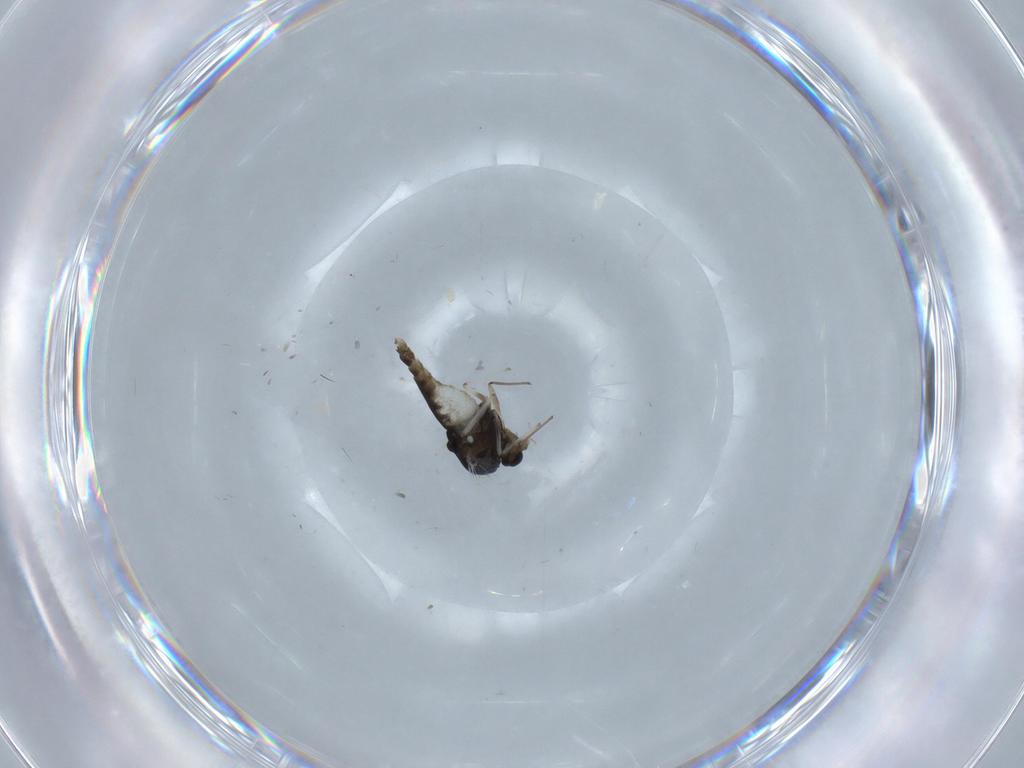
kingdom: Animalia
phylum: Arthropoda
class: Insecta
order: Diptera
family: Chironomidae
